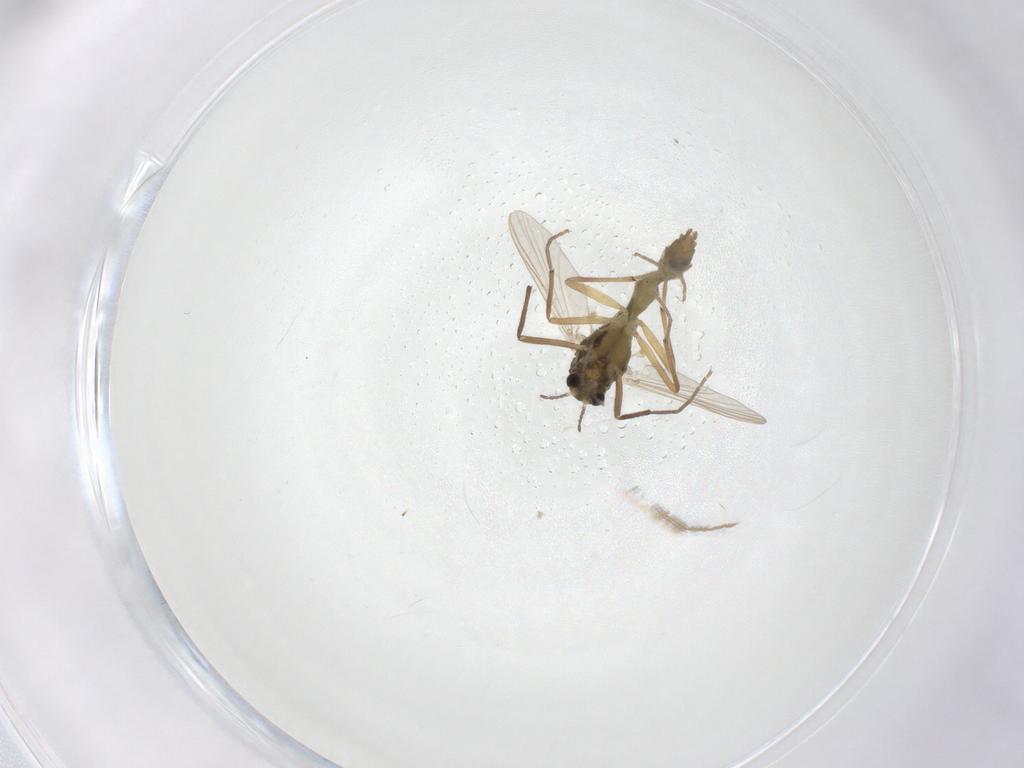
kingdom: Animalia
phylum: Arthropoda
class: Insecta
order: Diptera
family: Chironomidae
